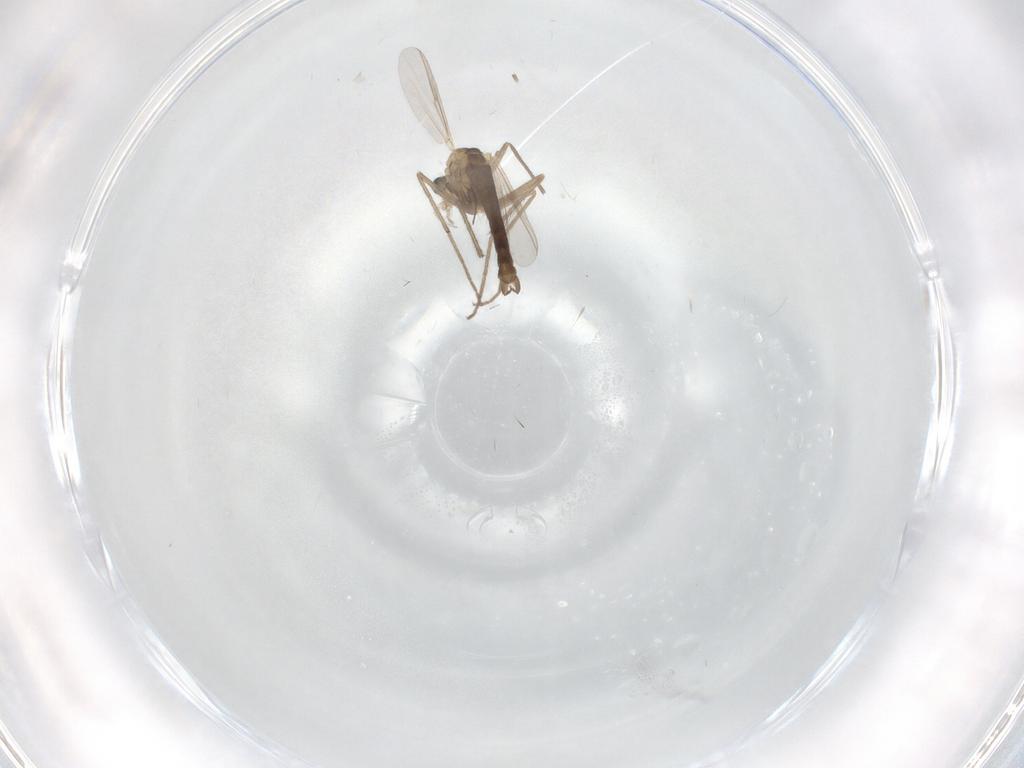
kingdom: Animalia
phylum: Arthropoda
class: Insecta
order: Diptera
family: Chironomidae
